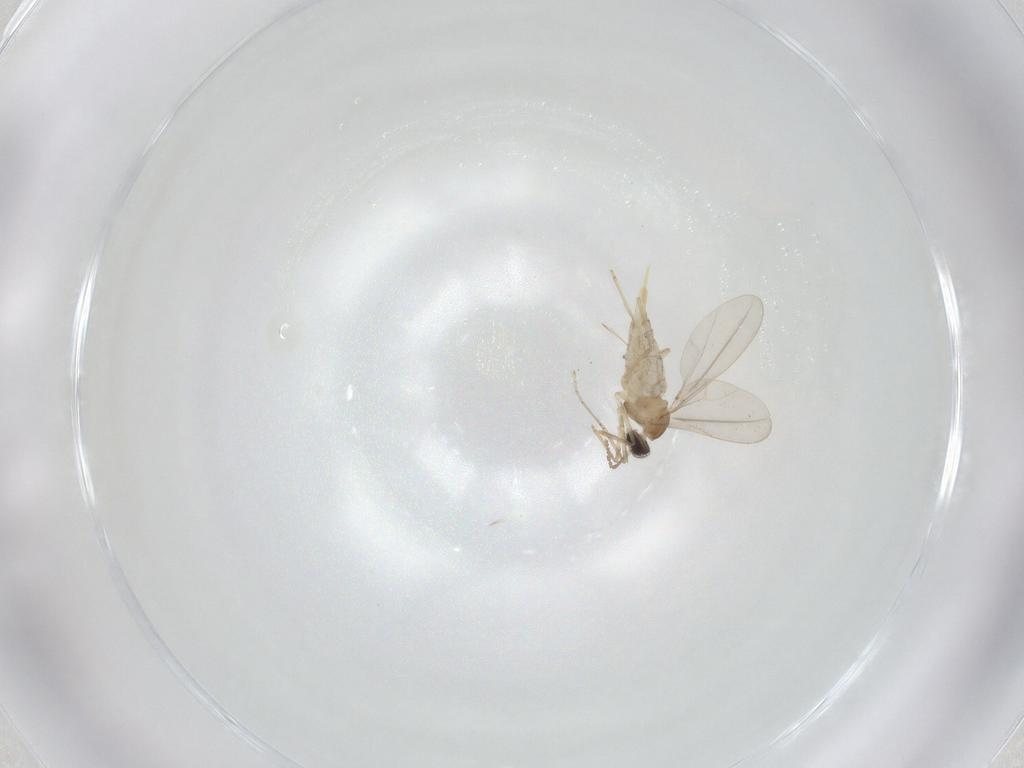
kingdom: Animalia
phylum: Arthropoda
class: Insecta
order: Diptera
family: Cecidomyiidae
